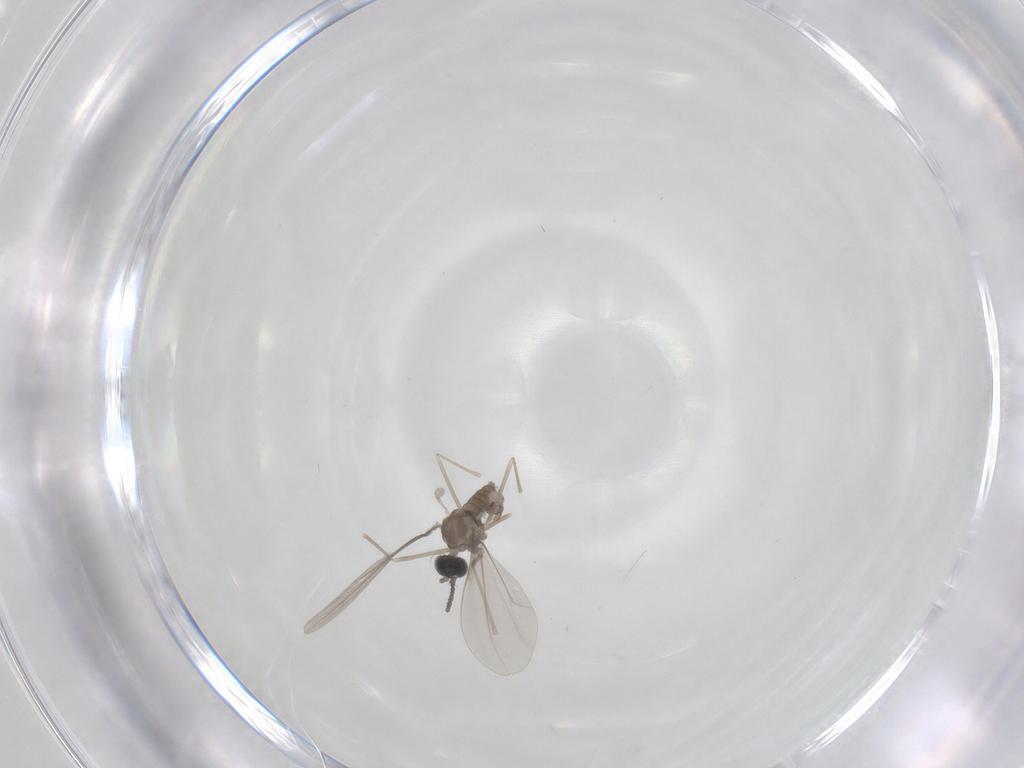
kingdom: Animalia
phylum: Arthropoda
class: Insecta
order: Diptera
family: Cecidomyiidae
